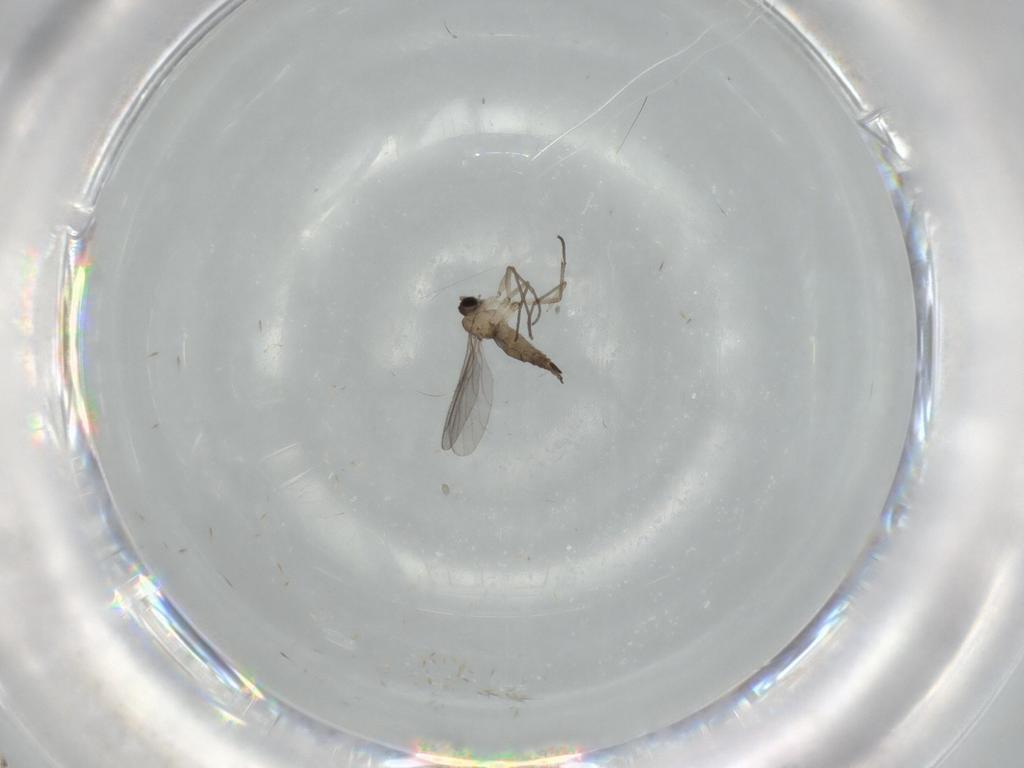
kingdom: Animalia
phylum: Arthropoda
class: Insecta
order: Diptera
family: Sciaridae
